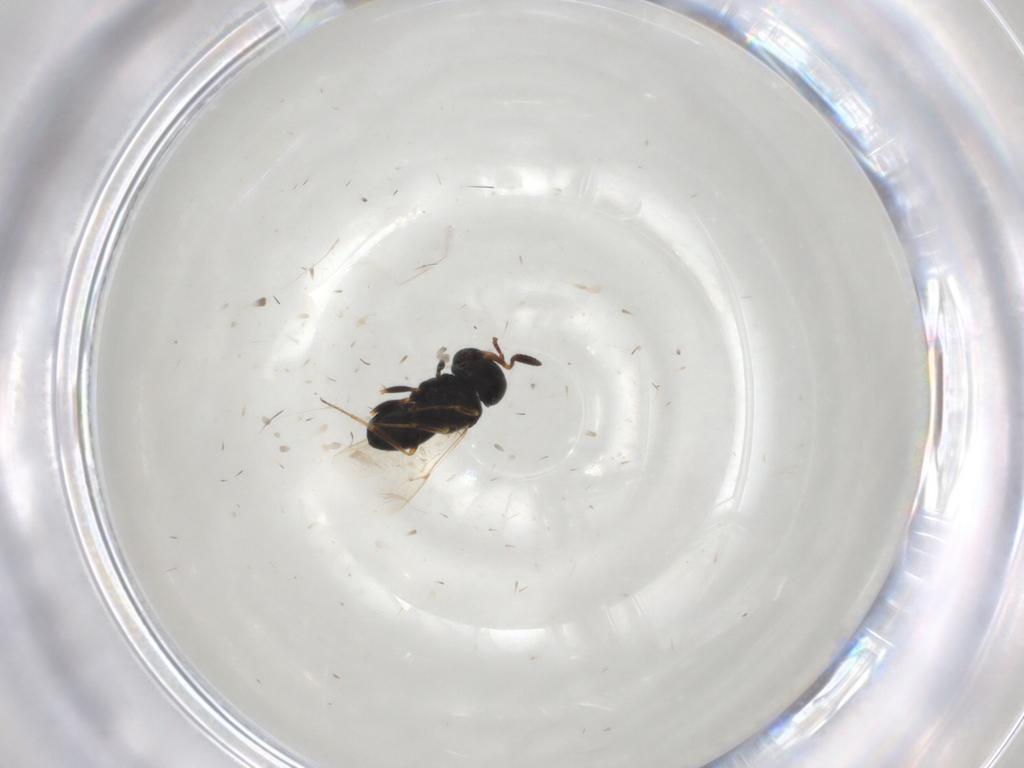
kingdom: Animalia
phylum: Arthropoda
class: Insecta
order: Coleoptera
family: Curculionidae
